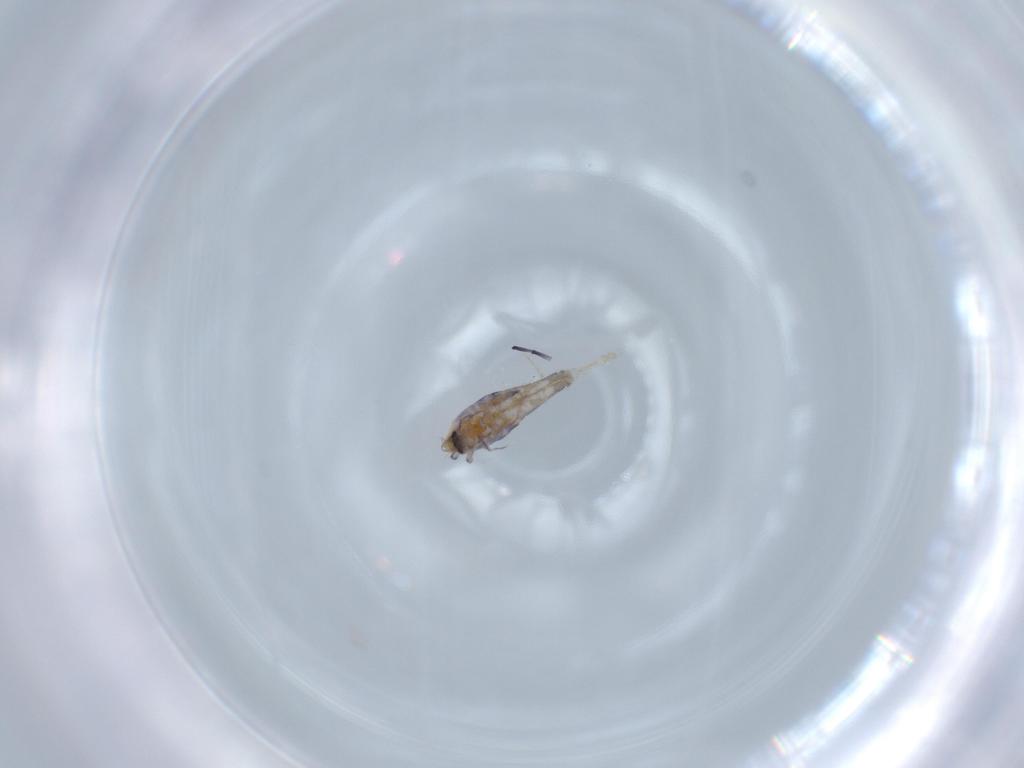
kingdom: Animalia
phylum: Arthropoda
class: Collembola
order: Poduromorpha
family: Hypogastruridae
